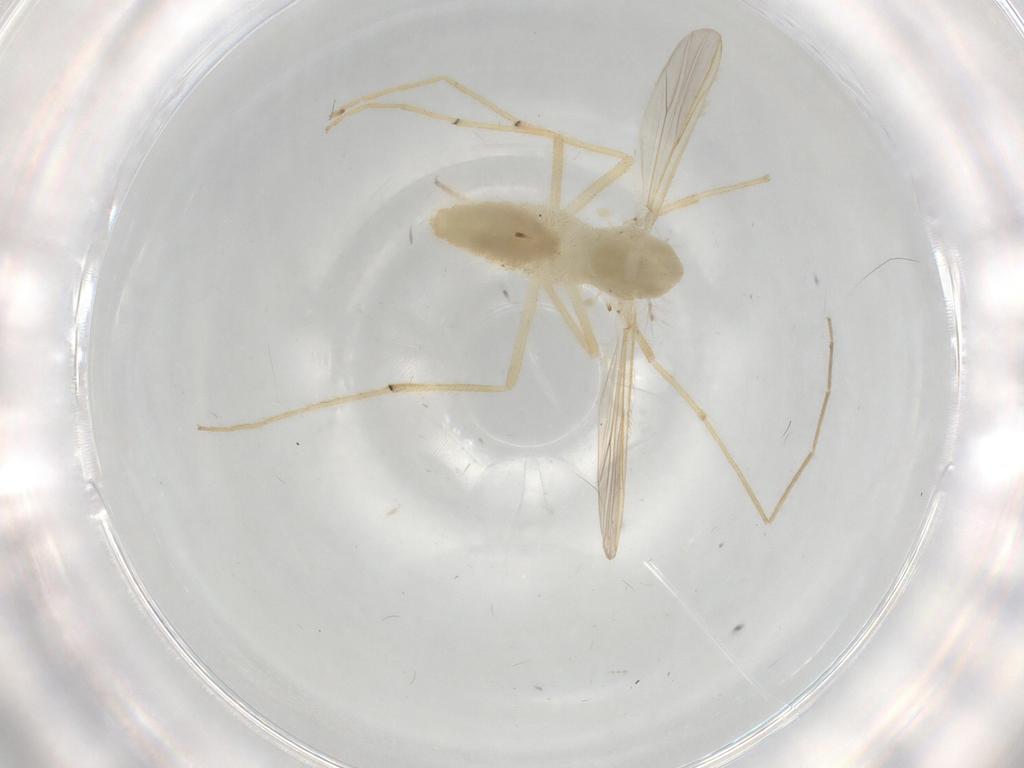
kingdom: Animalia
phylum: Arthropoda
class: Insecta
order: Diptera
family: Chironomidae
